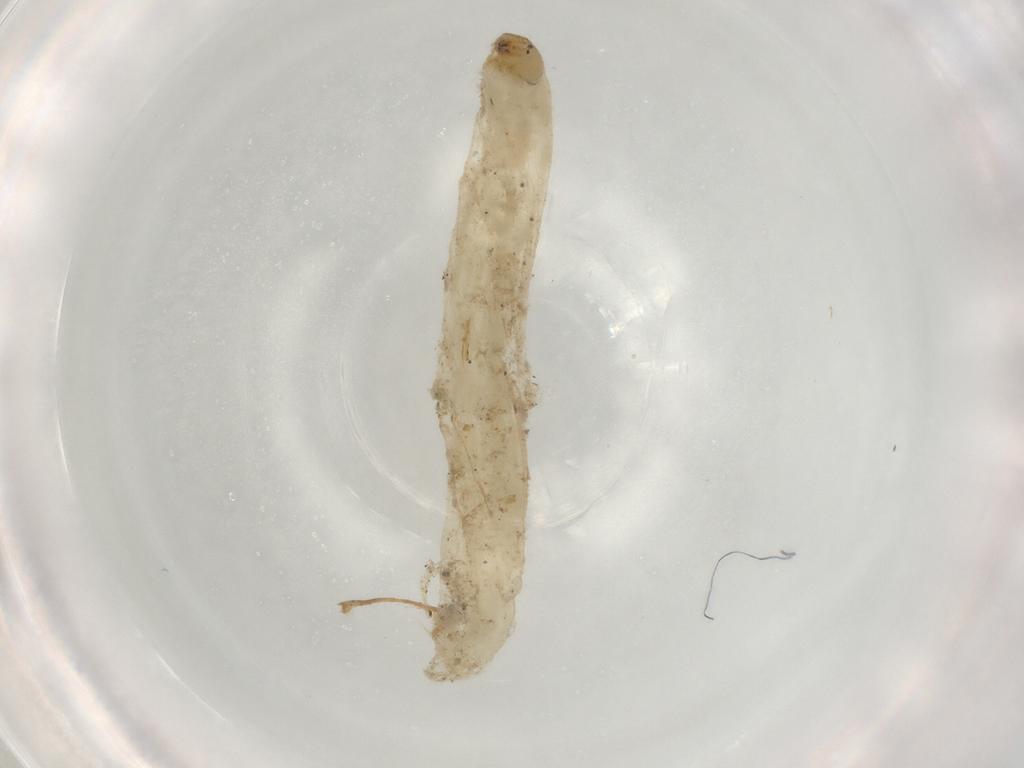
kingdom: Animalia
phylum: Arthropoda
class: Insecta
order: Diptera
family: Chironomidae
